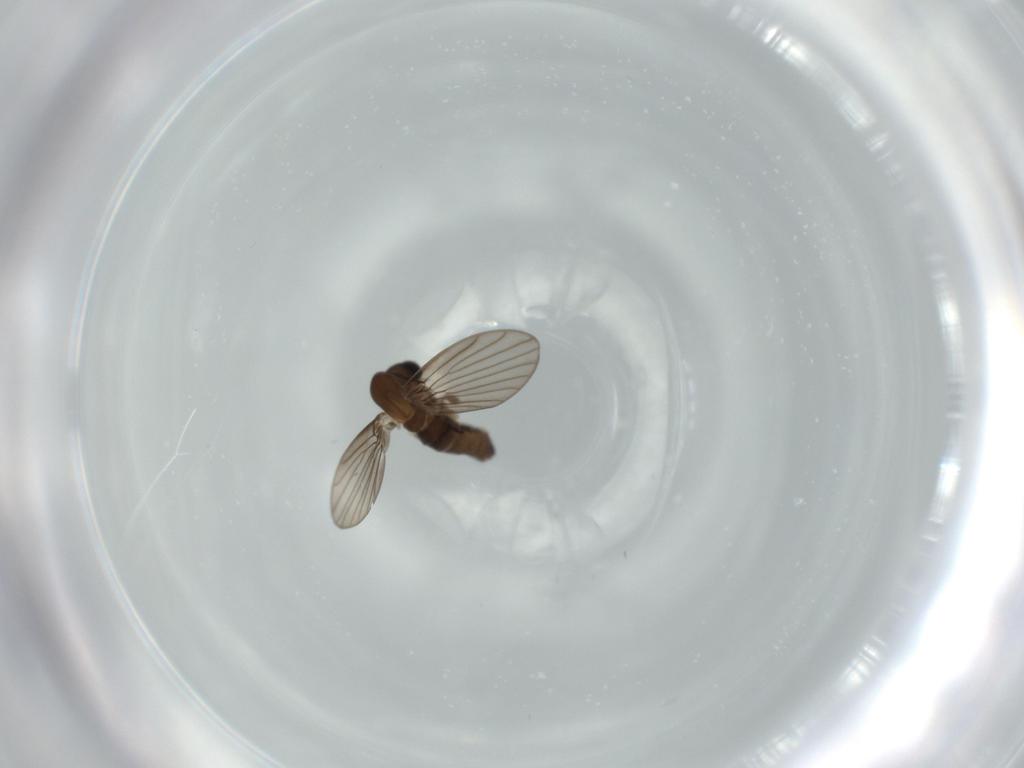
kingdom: Animalia
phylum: Arthropoda
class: Insecta
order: Diptera
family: Psychodidae
